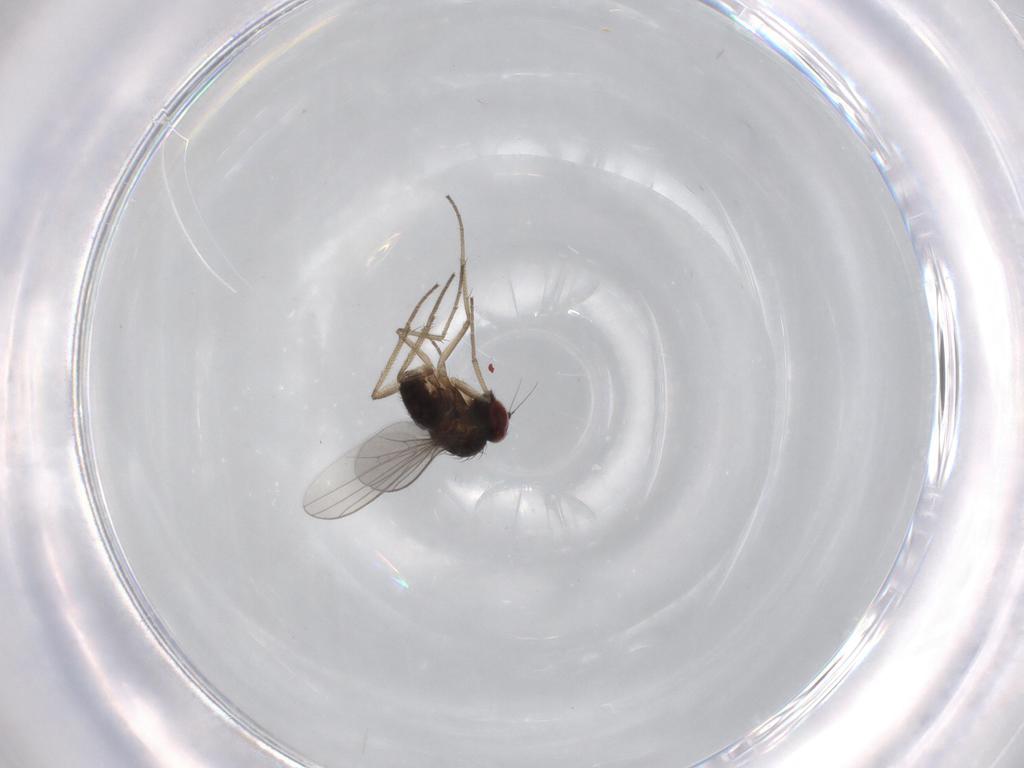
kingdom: Animalia
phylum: Arthropoda
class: Insecta
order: Diptera
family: Dolichopodidae
